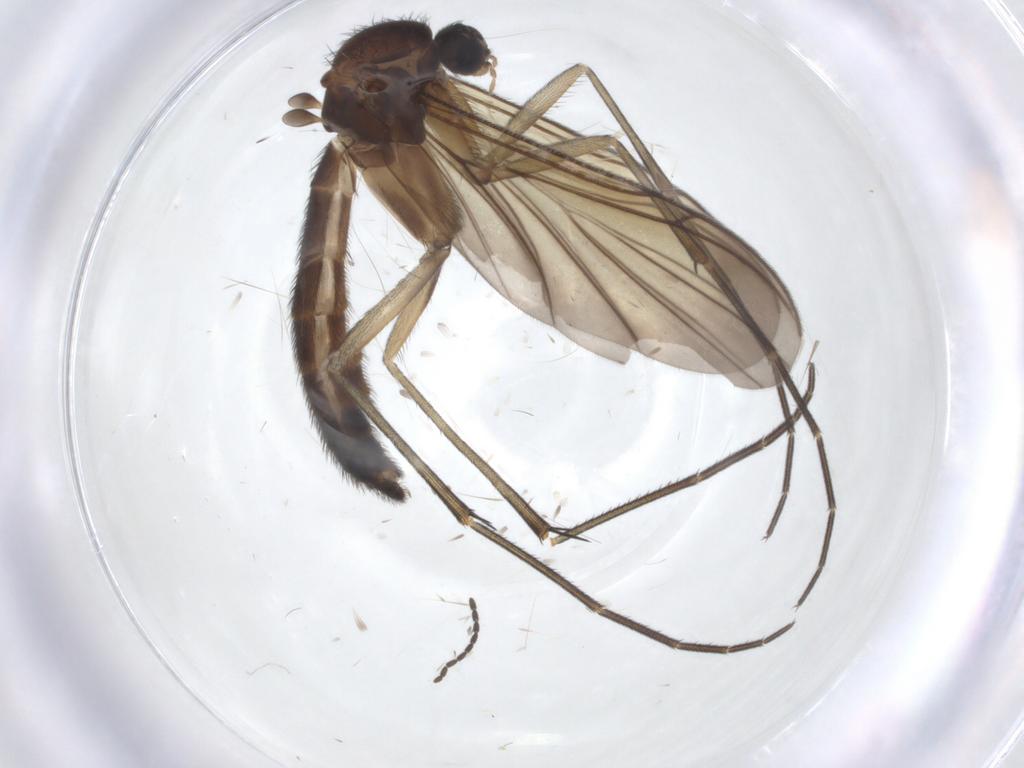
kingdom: Animalia
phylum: Arthropoda
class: Insecta
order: Diptera
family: Keroplatidae
